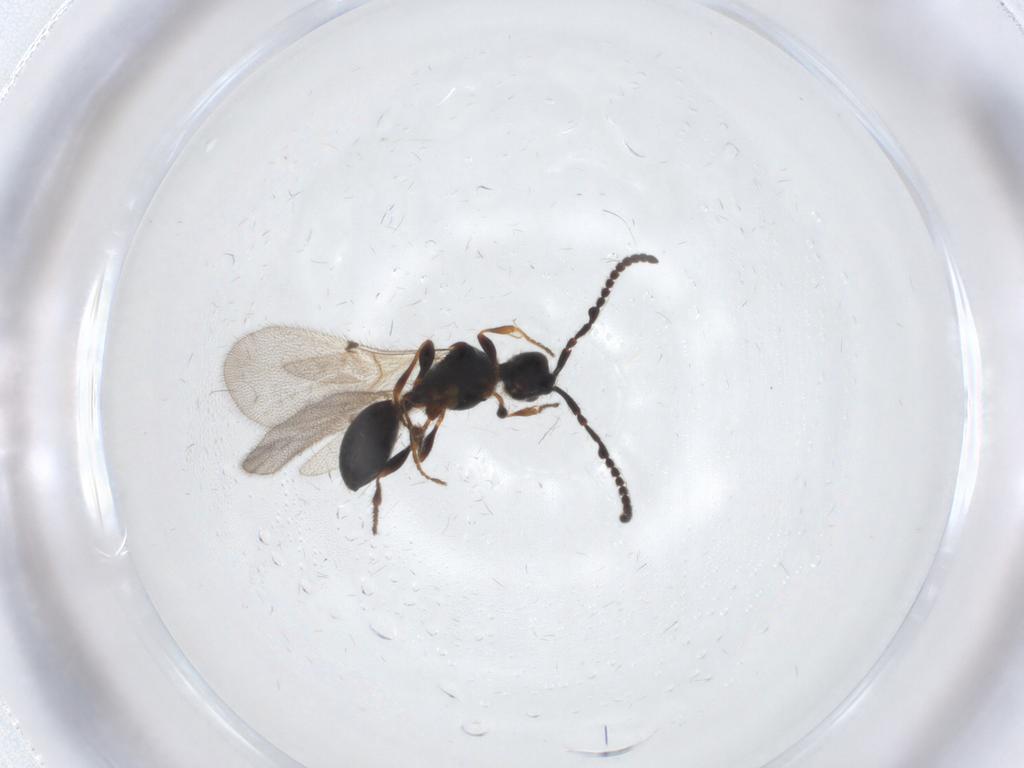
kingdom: Animalia
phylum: Arthropoda
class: Insecta
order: Hymenoptera
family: Diapriidae
